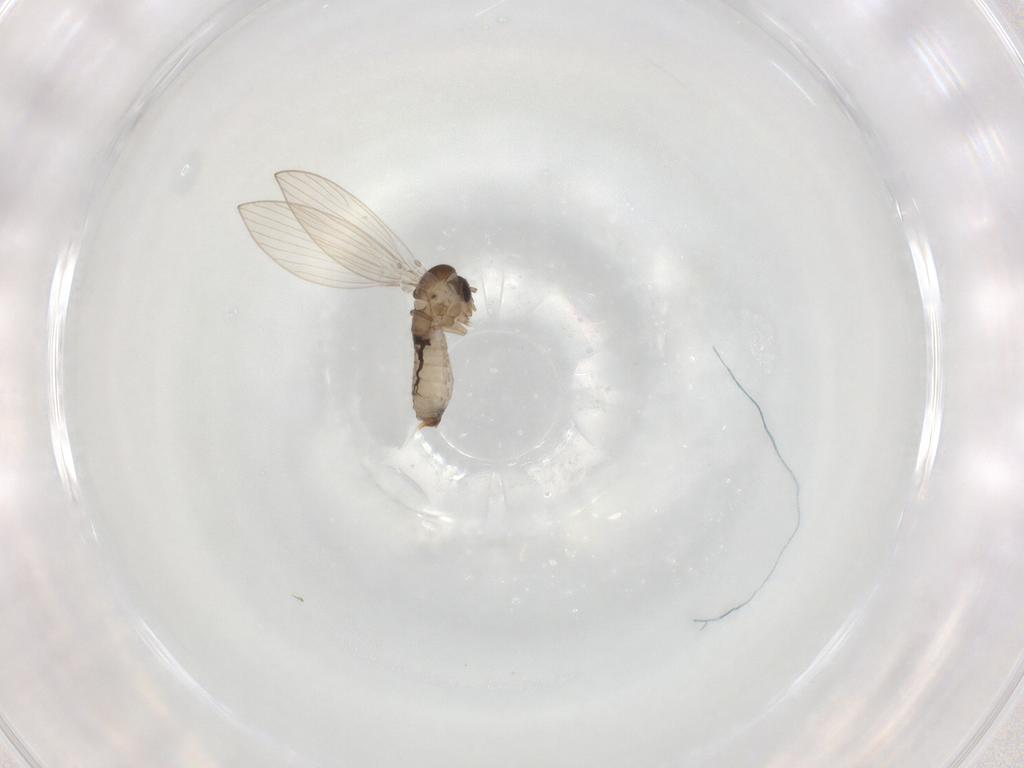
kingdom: Animalia
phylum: Arthropoda
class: Insecta
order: Diptera
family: Psychodidae
